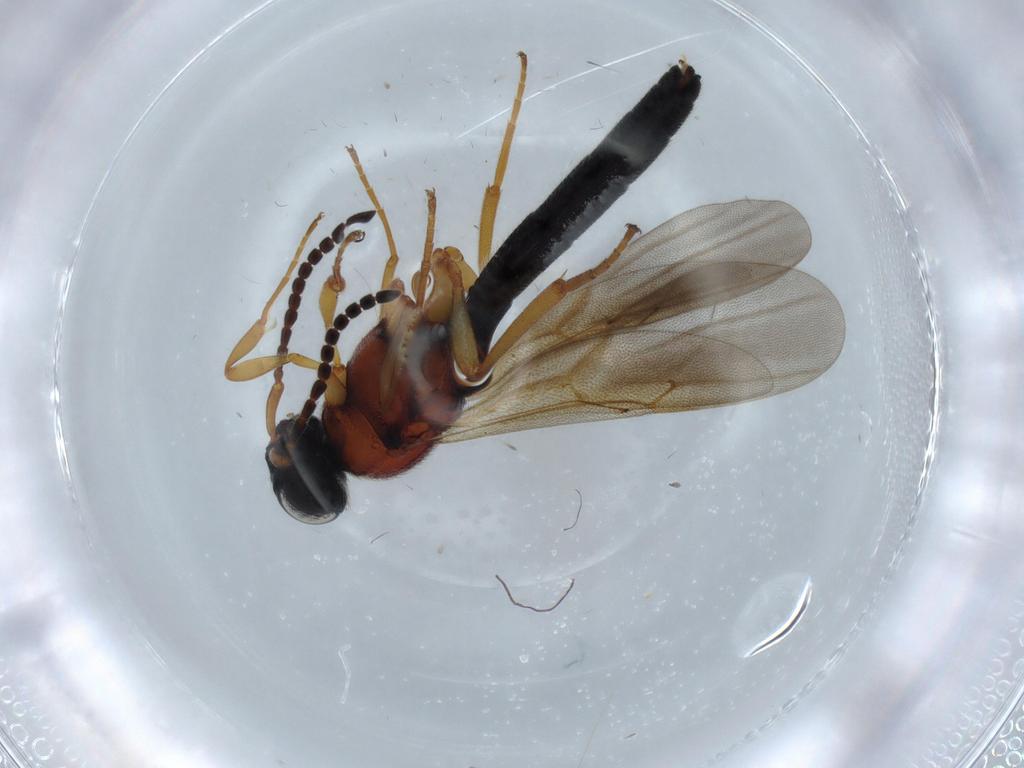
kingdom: Animalia
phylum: Arthropoda
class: Insecta
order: Hymenoptera
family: Scelionidae
